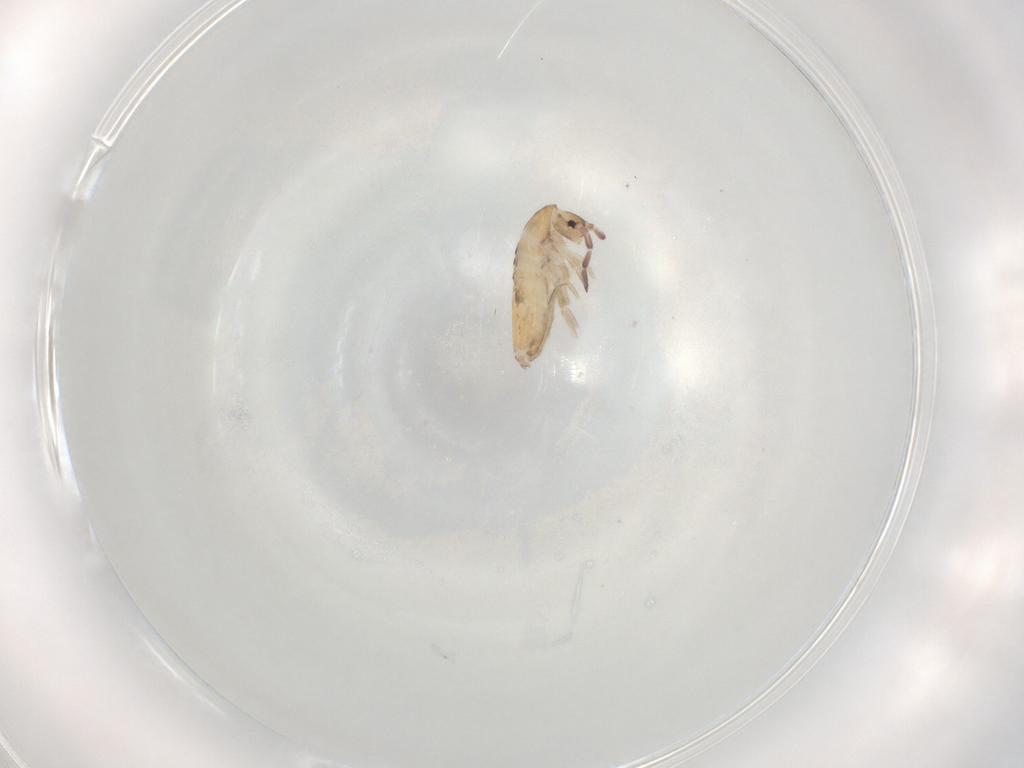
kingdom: Animalia
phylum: Arthropoda
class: Collembola
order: Entomobryomorpha
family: Entomobryidae
